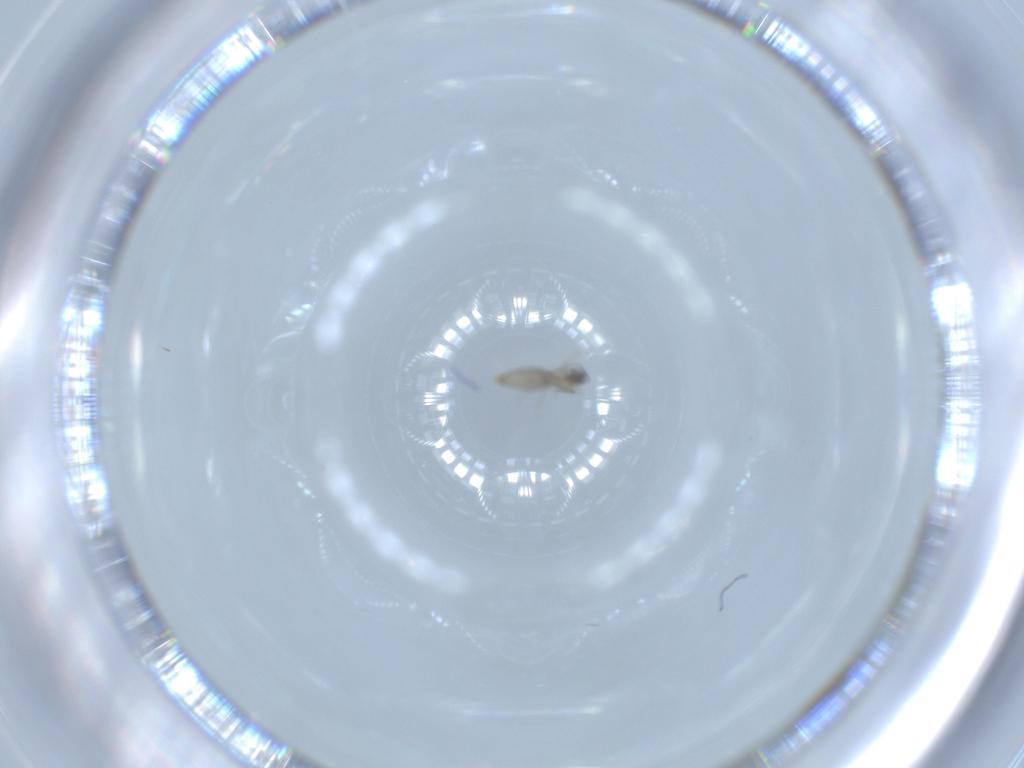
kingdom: Animalia
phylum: Arthropoda
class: Insecta
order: Diptera
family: Cecidomyiidae
